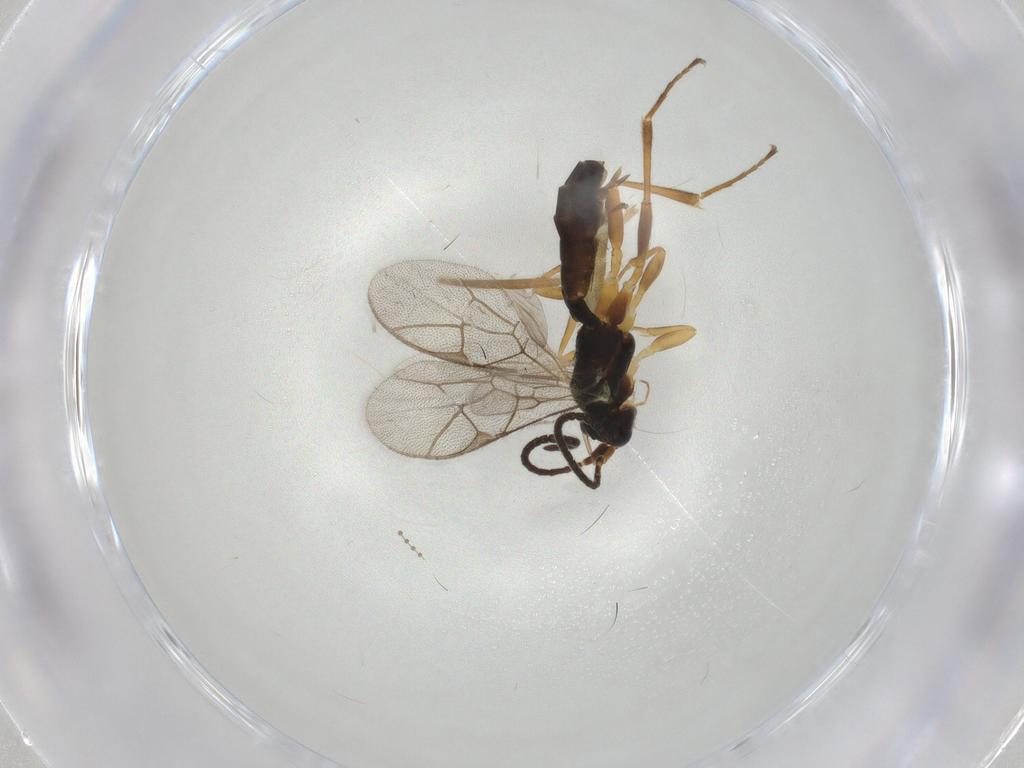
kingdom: Animalia
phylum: Arthropoda
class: Insecta
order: Hymenoptera
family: Ichneumonidae
